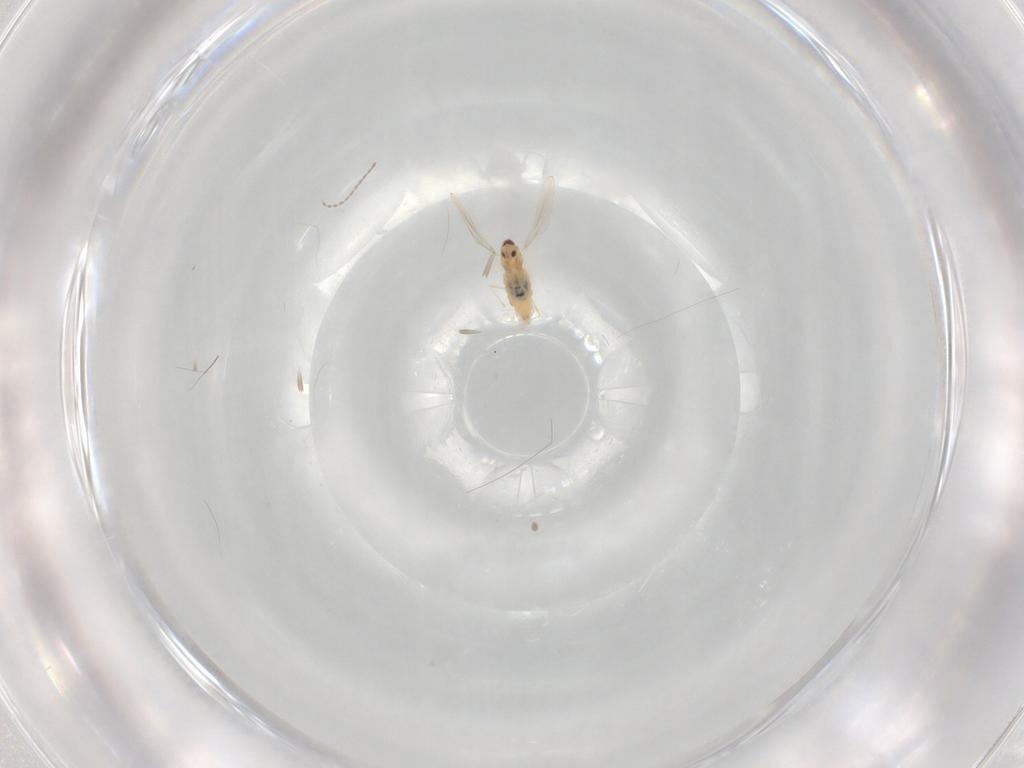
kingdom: Animalia
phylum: Arthropoda
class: Insecta
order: Diptera
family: Cecidomyiidae
